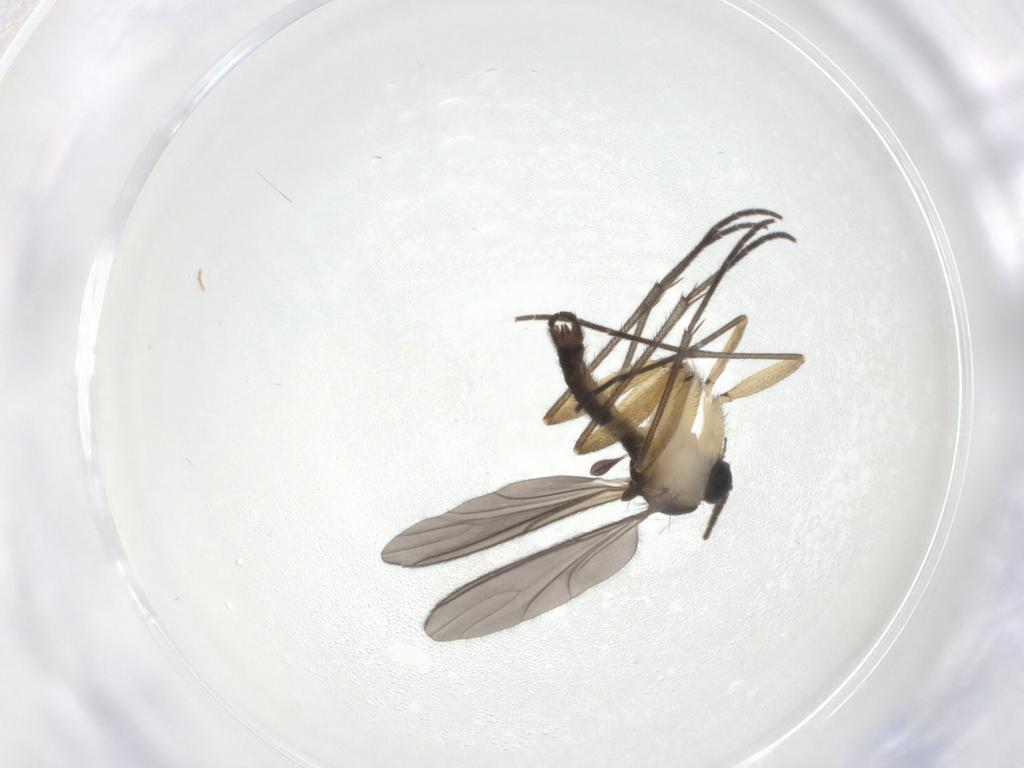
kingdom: Animalia
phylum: Arthropoda
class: Insecta
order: Diptera
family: Sciaridae
